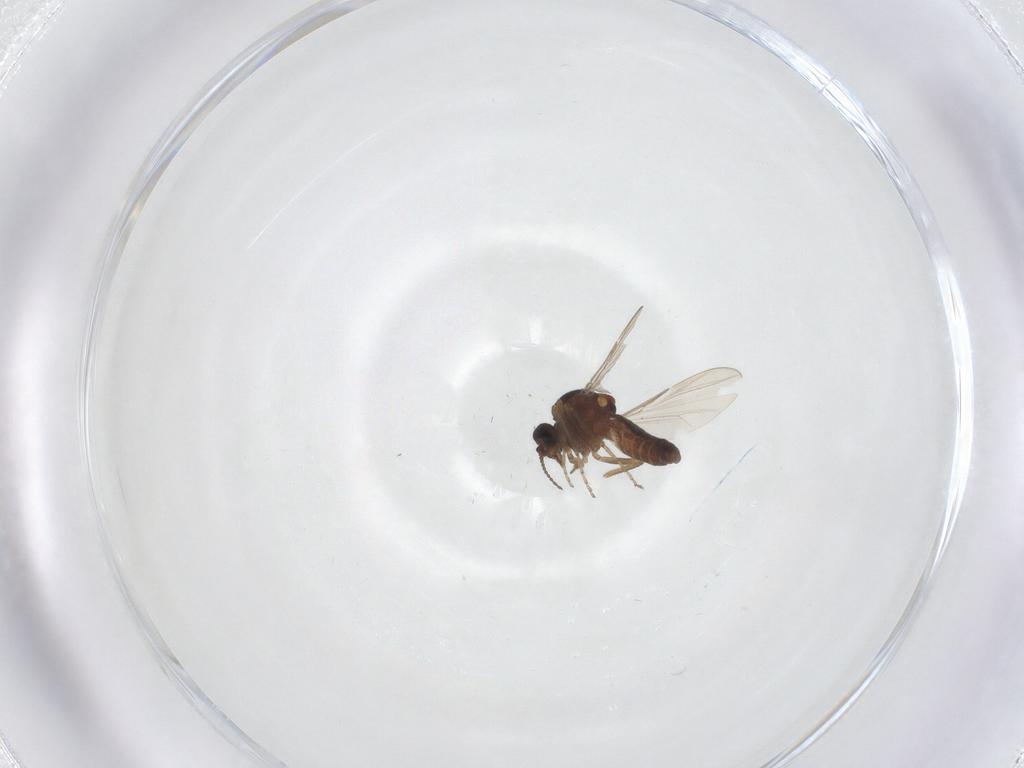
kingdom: Animalia
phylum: Arthropoda
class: Insecta
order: Diptera
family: Ceratopogonidae
